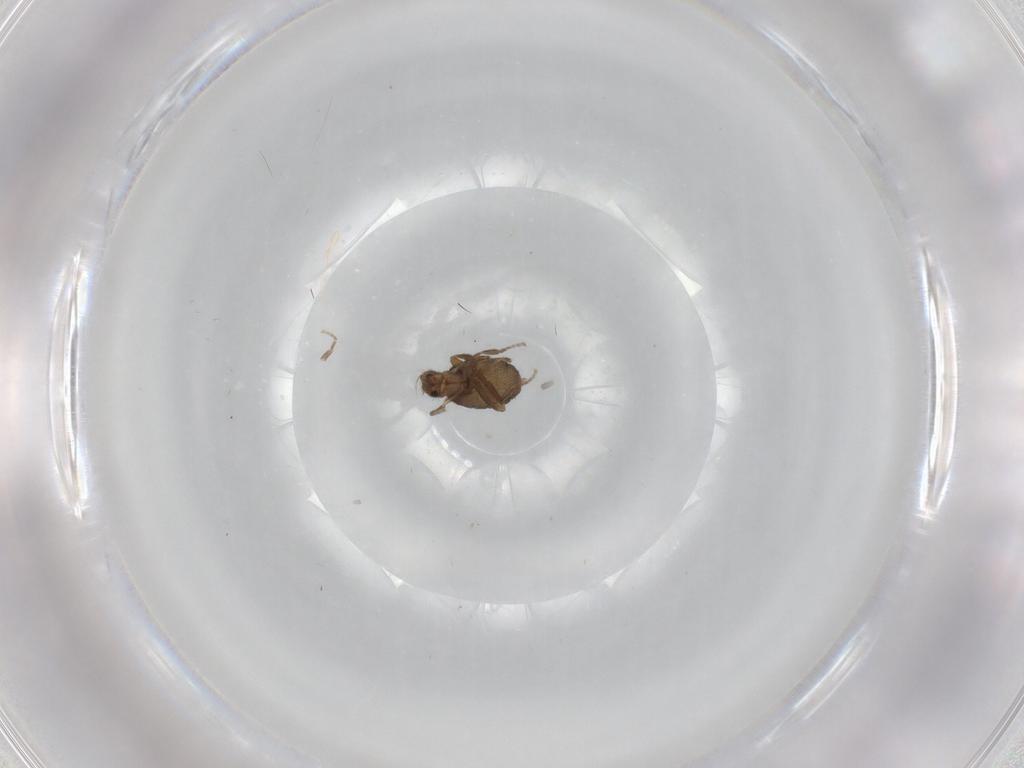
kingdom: Animalia
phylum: Arthropoda
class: Insecta
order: Diptera
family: Phoridae
